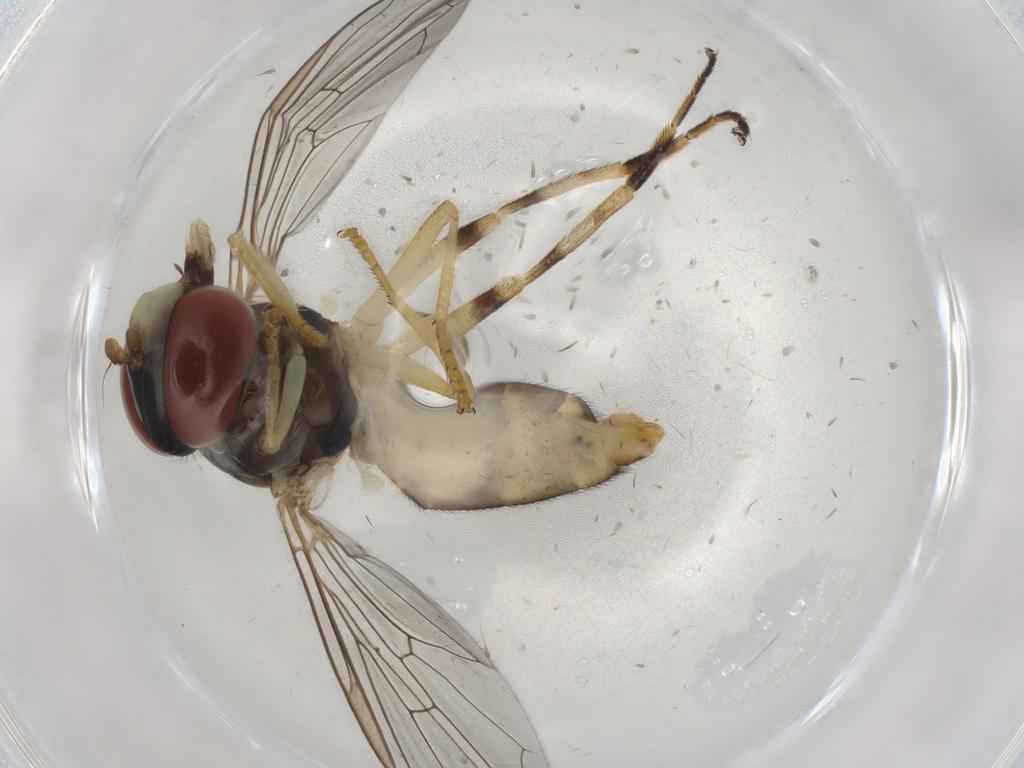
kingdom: Animalia
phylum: Arthropoda
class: Insecta
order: Diptera
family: Syrphidae
